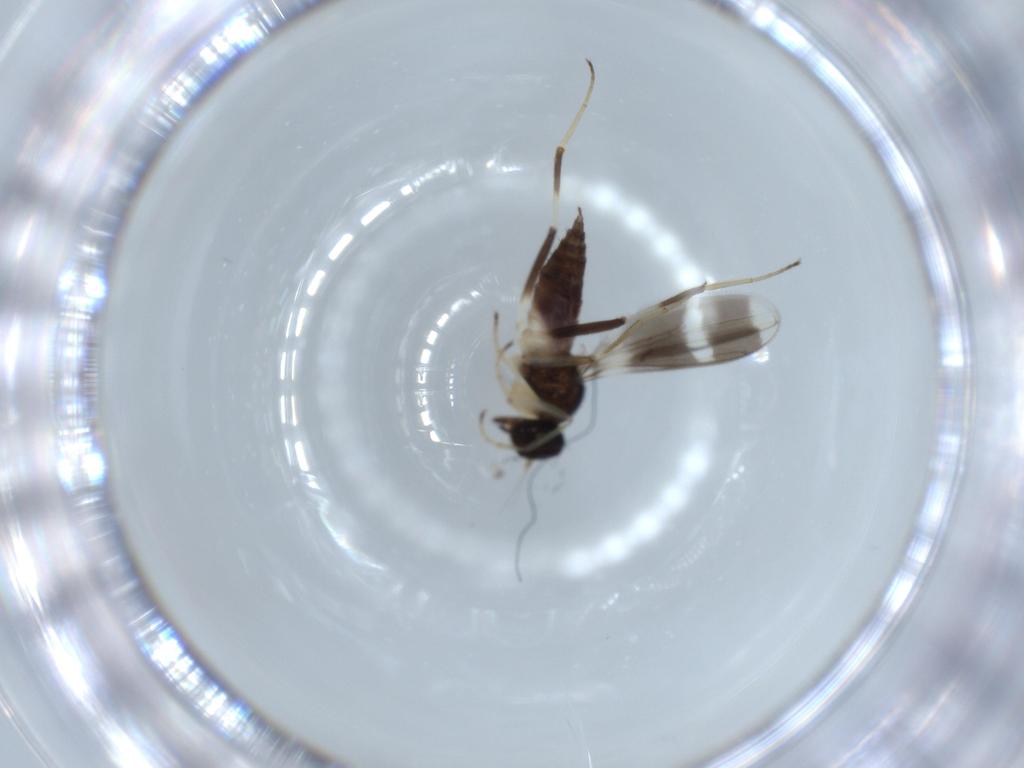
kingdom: Animalia
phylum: Arthropoda
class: Insecta
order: Diptera
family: Hybotidae
